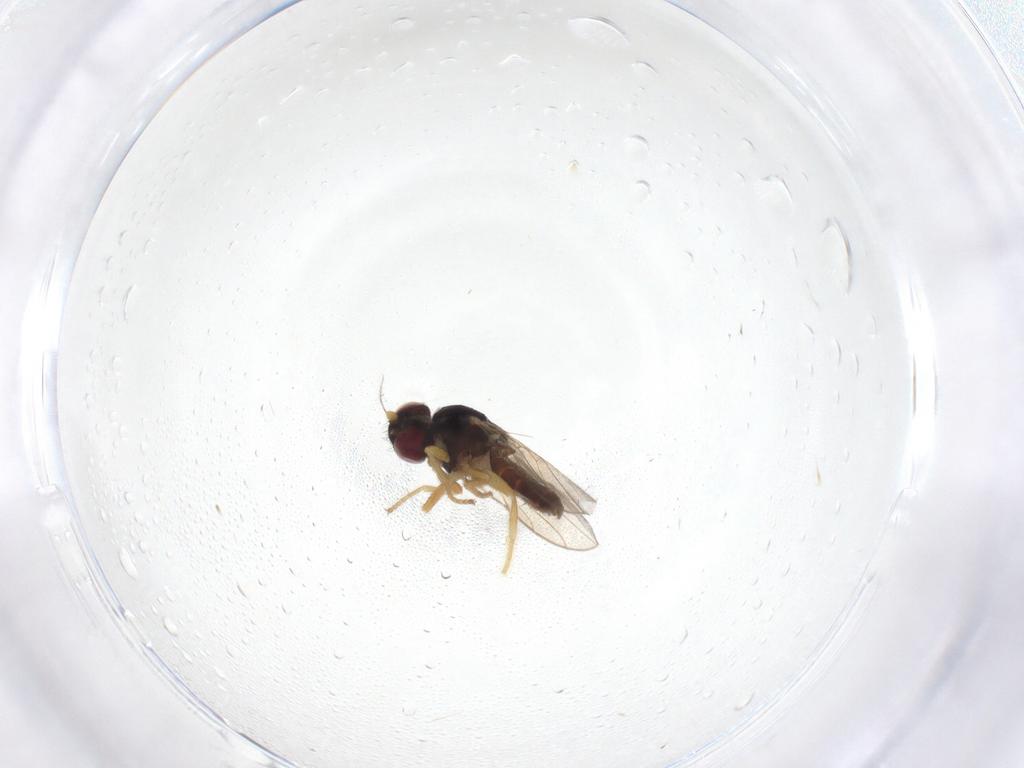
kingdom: Animalia
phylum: Arthropoda
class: Insecta
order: Diptera
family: Chloropidae
